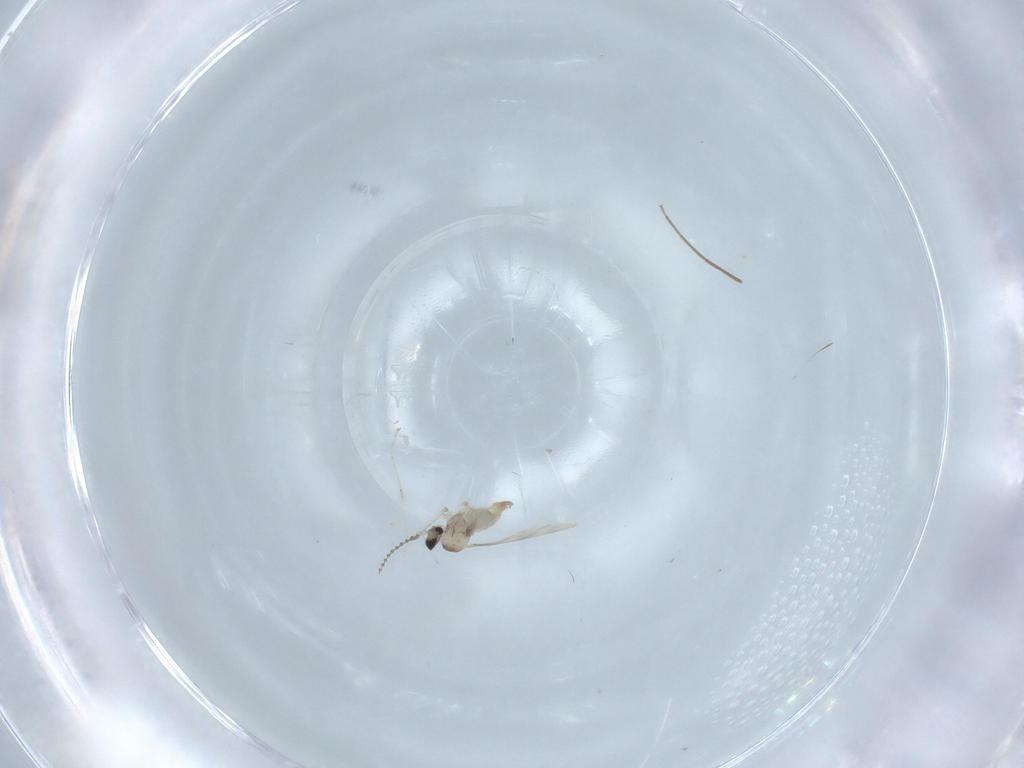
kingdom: Animalia
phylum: Arthropoda
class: Insecta
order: Diptera
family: Cecidomyiidae
